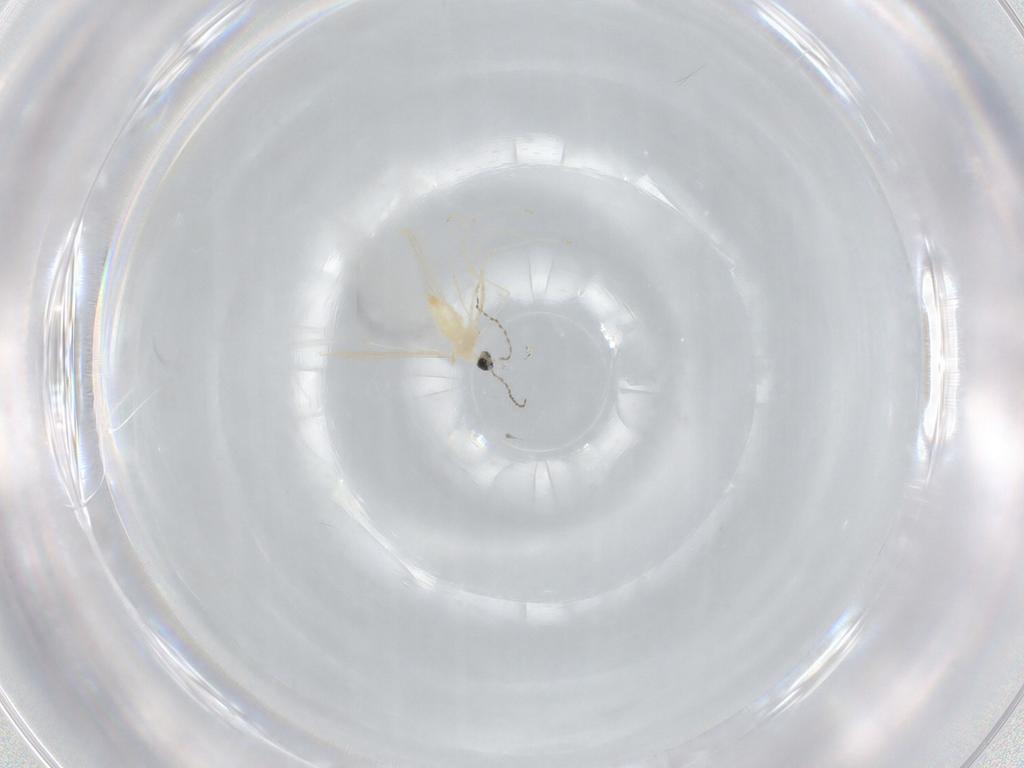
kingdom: Animalia
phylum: Arthropoda
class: Insecta
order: Diptera
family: Cecidomyiidae
